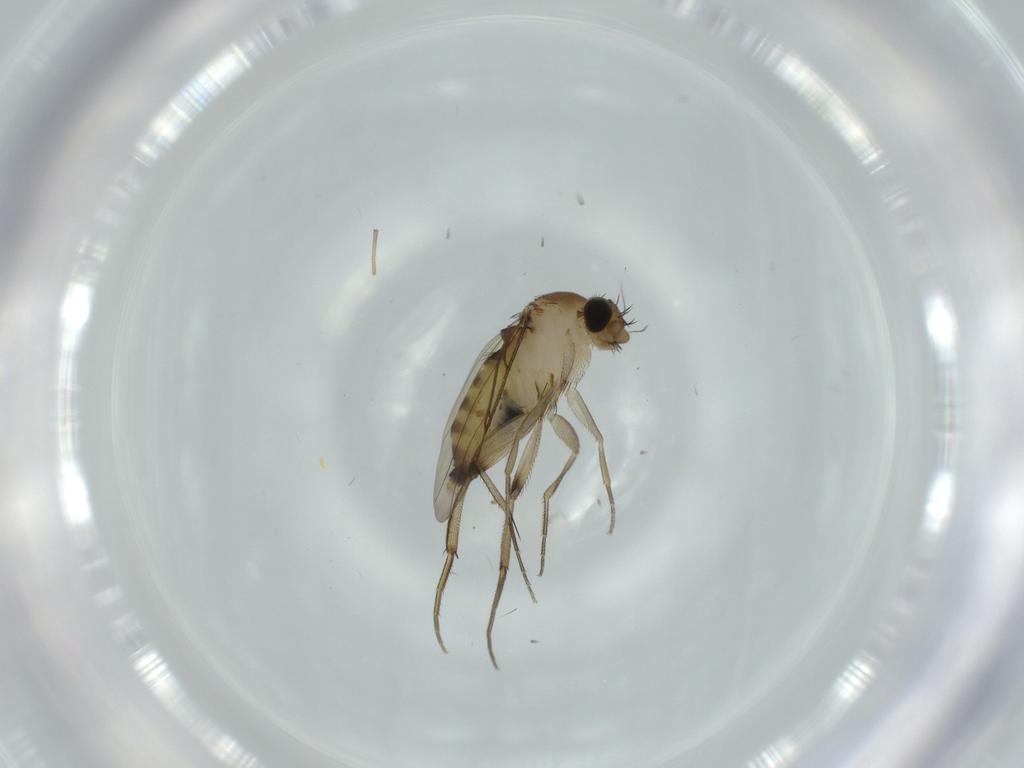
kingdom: Animalia
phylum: Arthropoda
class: Insecta
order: Diptera
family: Phoridae
